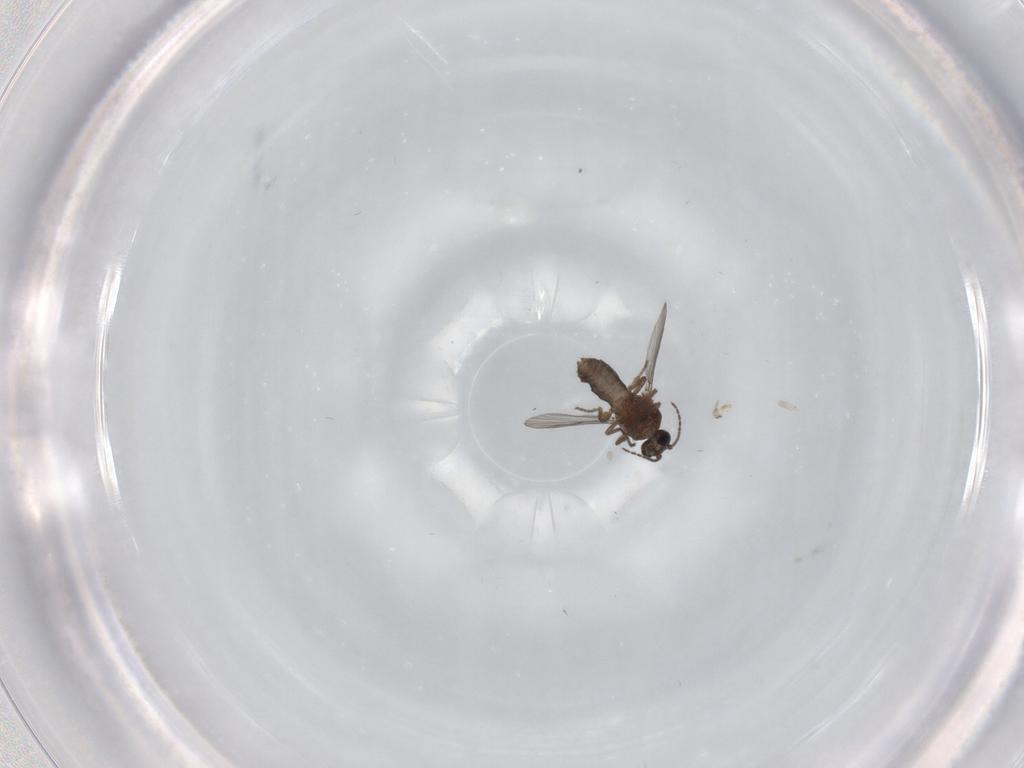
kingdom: Animalia
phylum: Arthropoda
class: Insecta
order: Diptera
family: Ceratopogonidae
